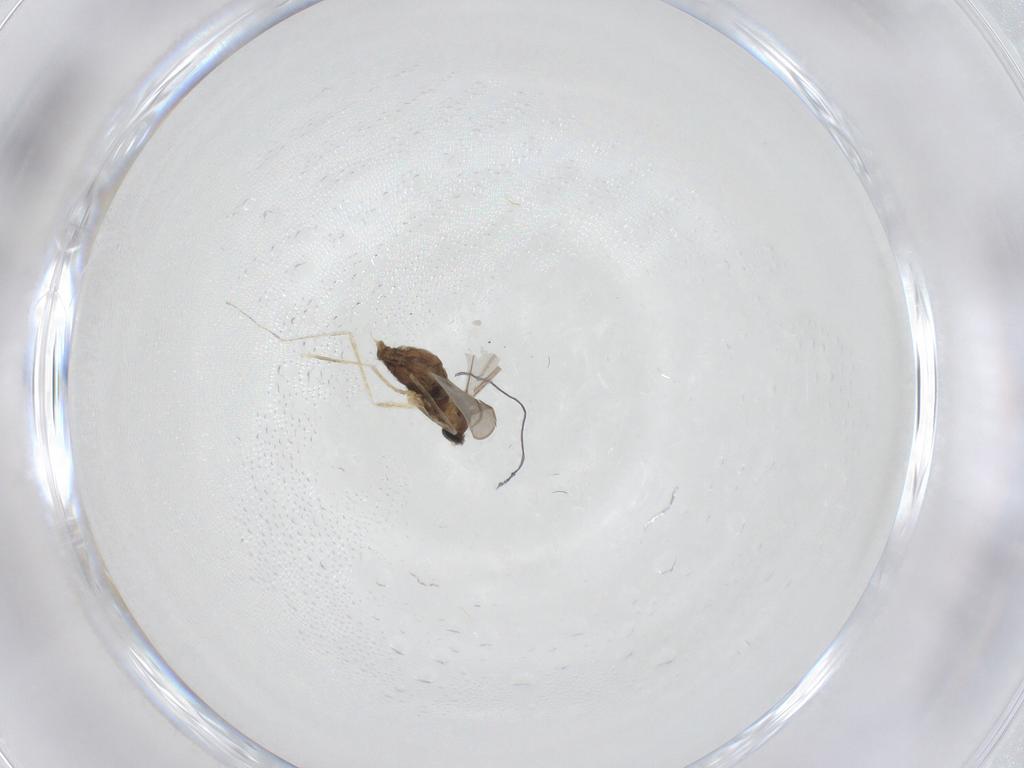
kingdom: Animalia
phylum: Arthropoda
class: Insecta
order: Diptera
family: Cecidomyiidae
